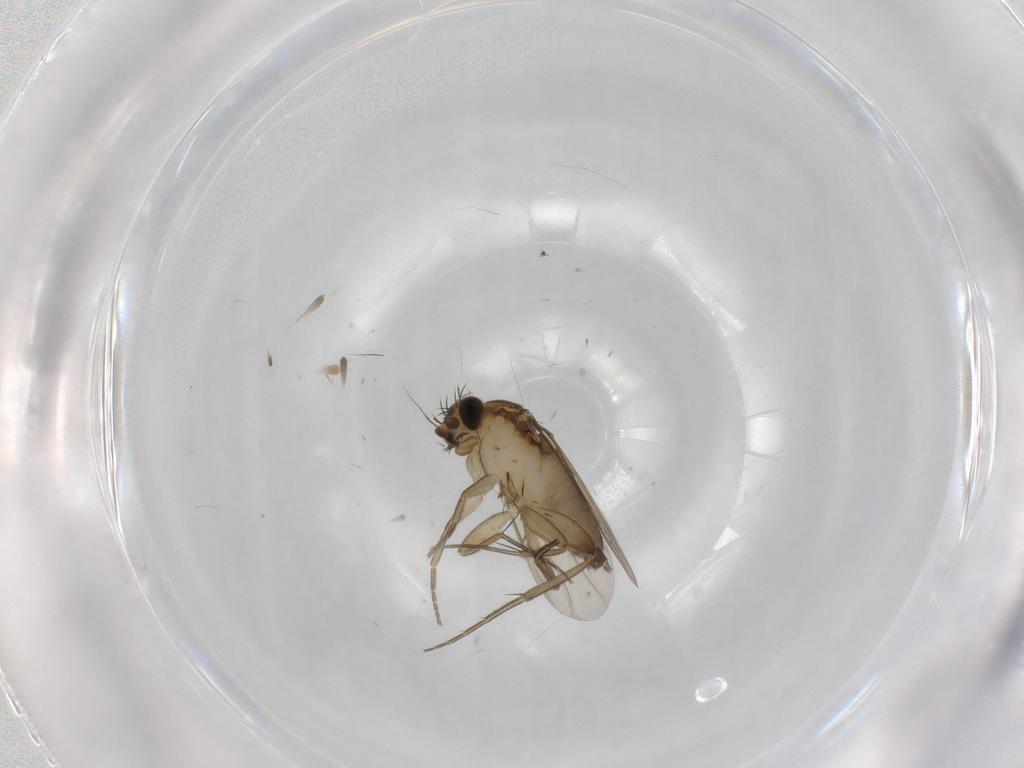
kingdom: Animalia
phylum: Arthropoda
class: Insecta
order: Diptera
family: Phoridae
